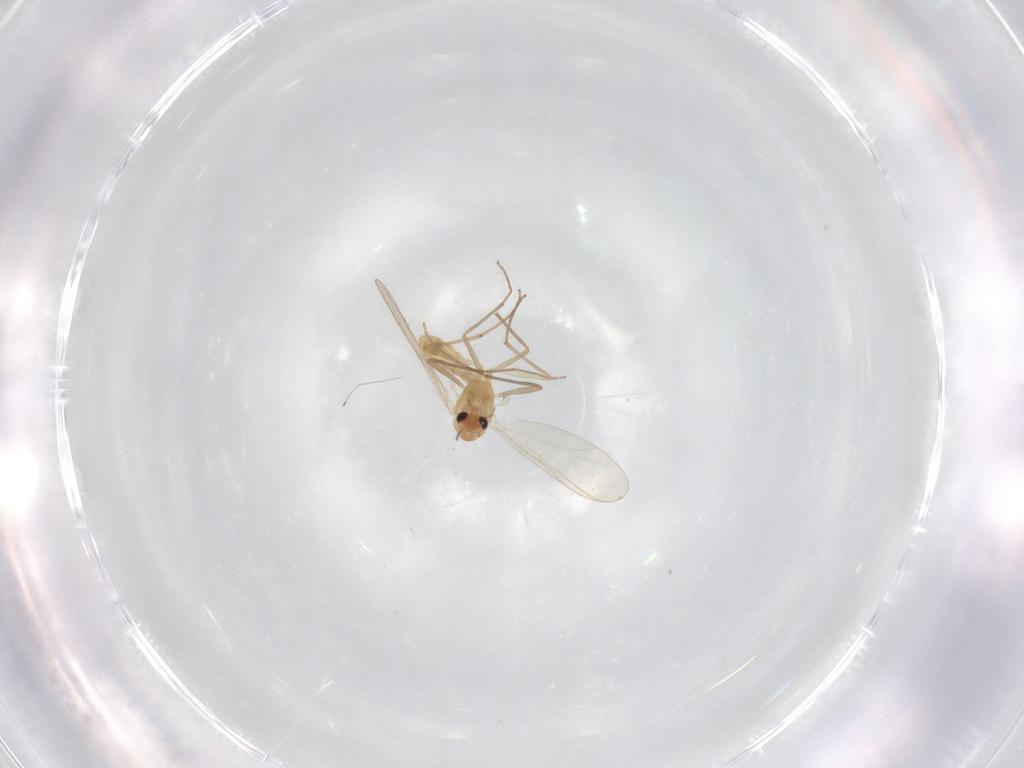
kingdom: Animalia
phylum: Arthropoda
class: Insecta
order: Diptera
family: Chironomidae
